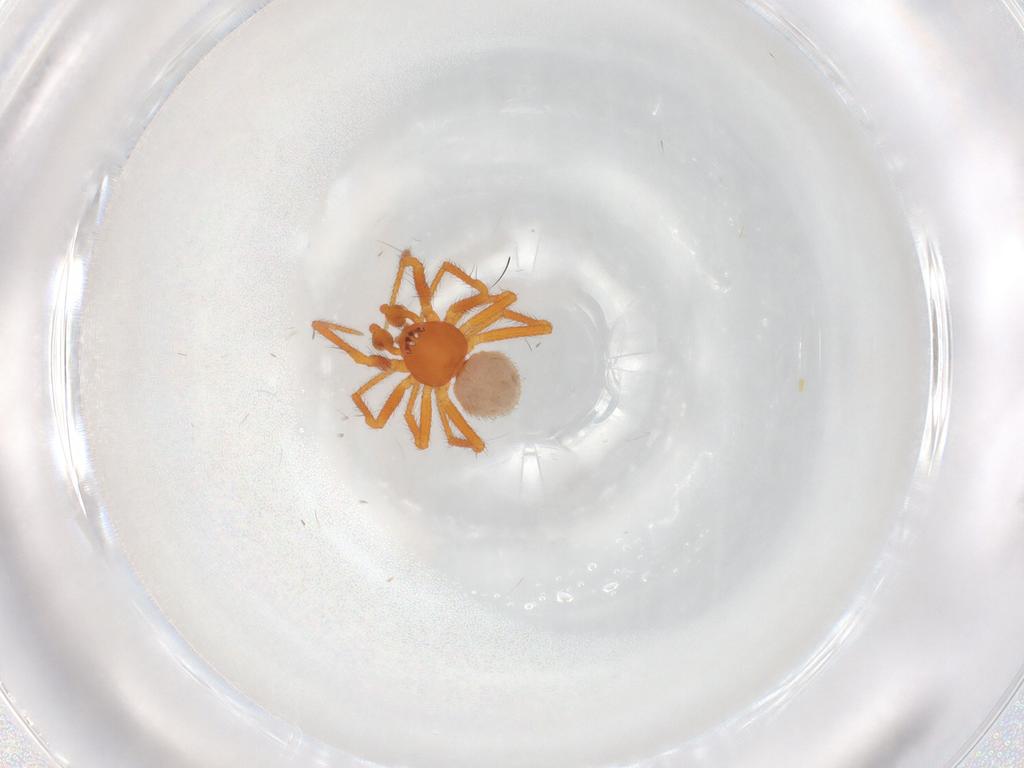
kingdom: Animalia
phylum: Arthropoda
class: Arachnida
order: Araneae
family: Theridiidae
